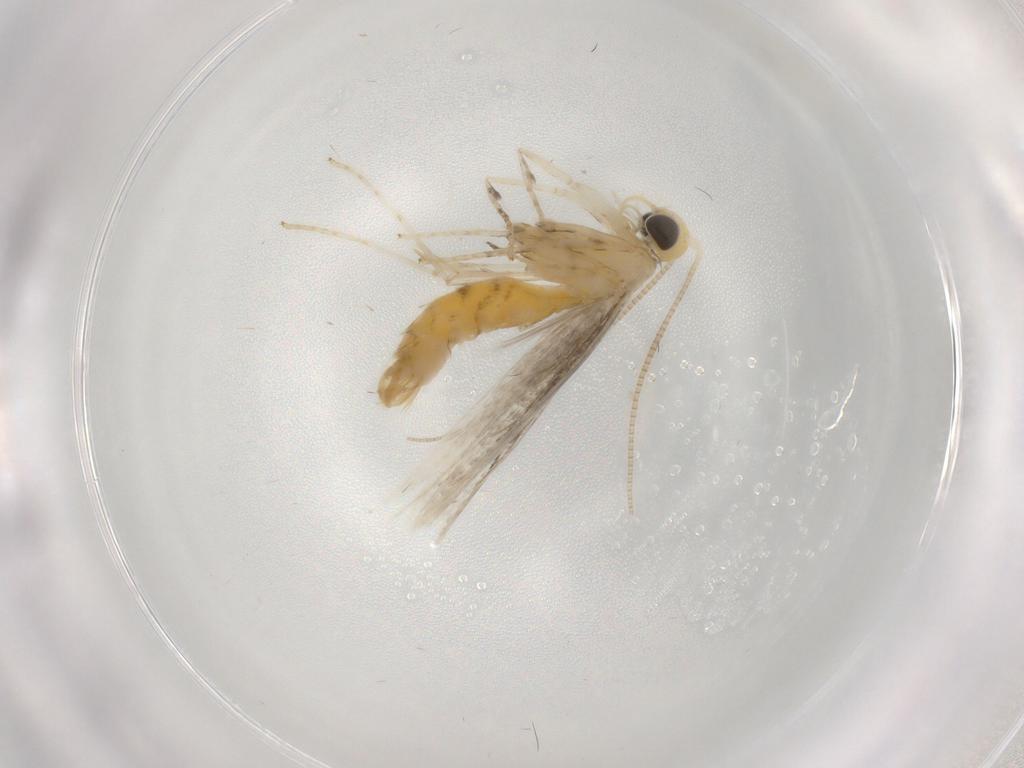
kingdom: Animalia
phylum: Arthropoda
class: Insecta
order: Lepidoptera
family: Gracillariidae
